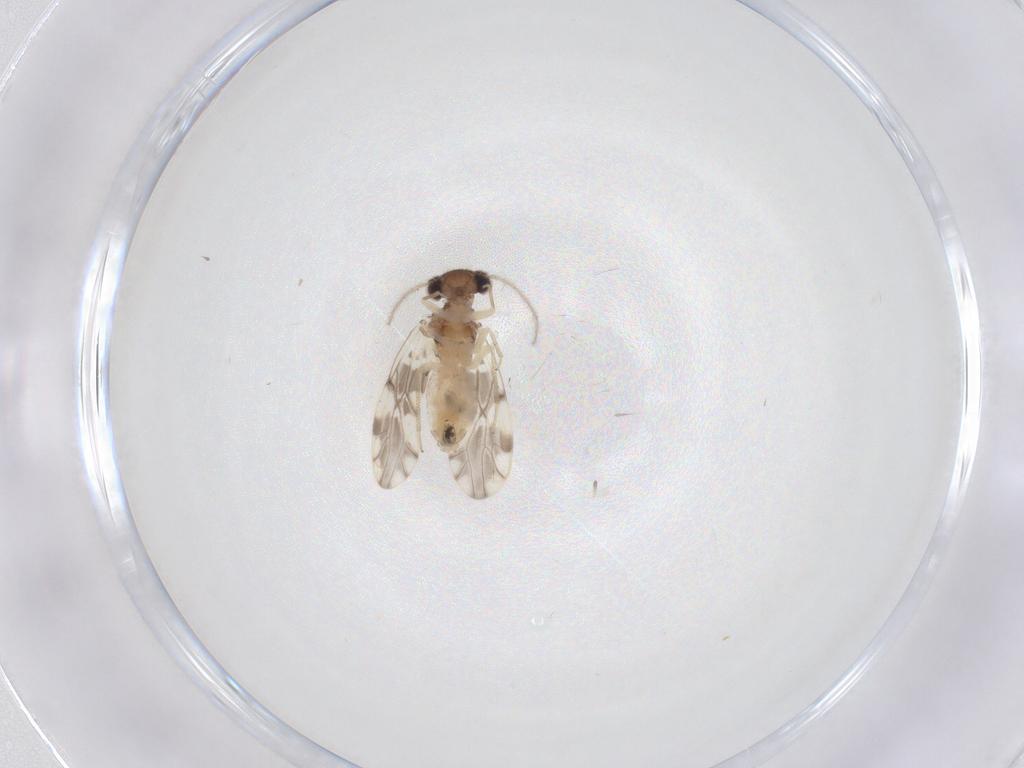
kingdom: Animalia
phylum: Arthropoda
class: Insecta
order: Psocodea
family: Ectopsocidae
